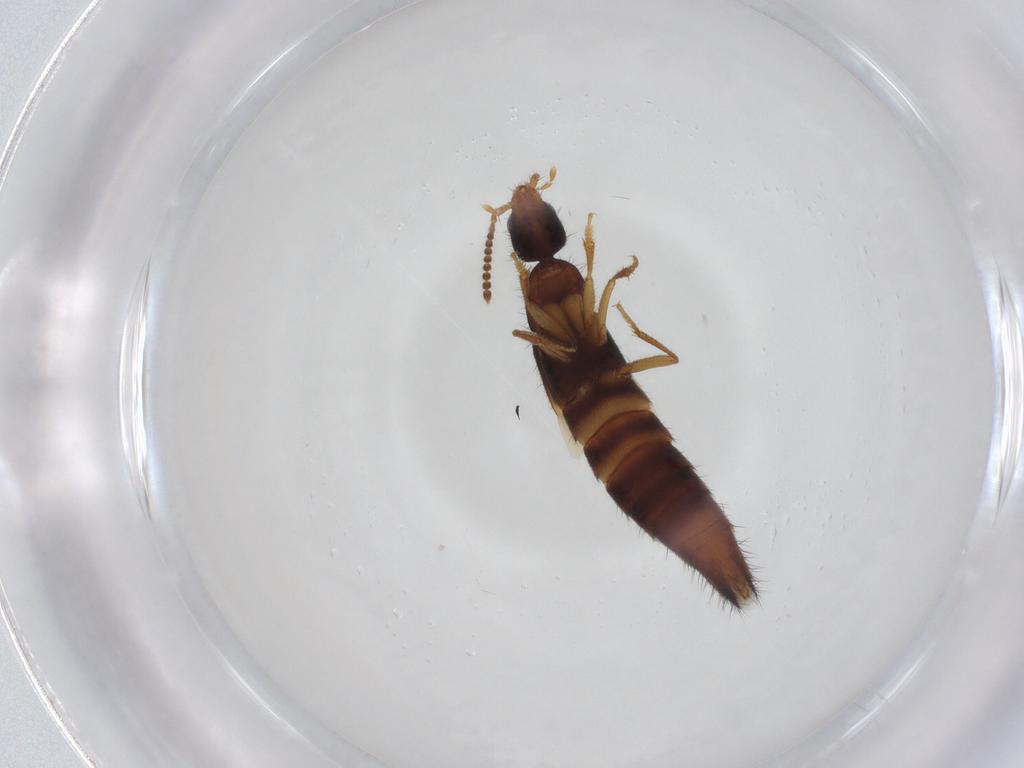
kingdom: Animalia
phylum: Arthropoda
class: Insecta
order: Coleoptera
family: Staphylinidae
